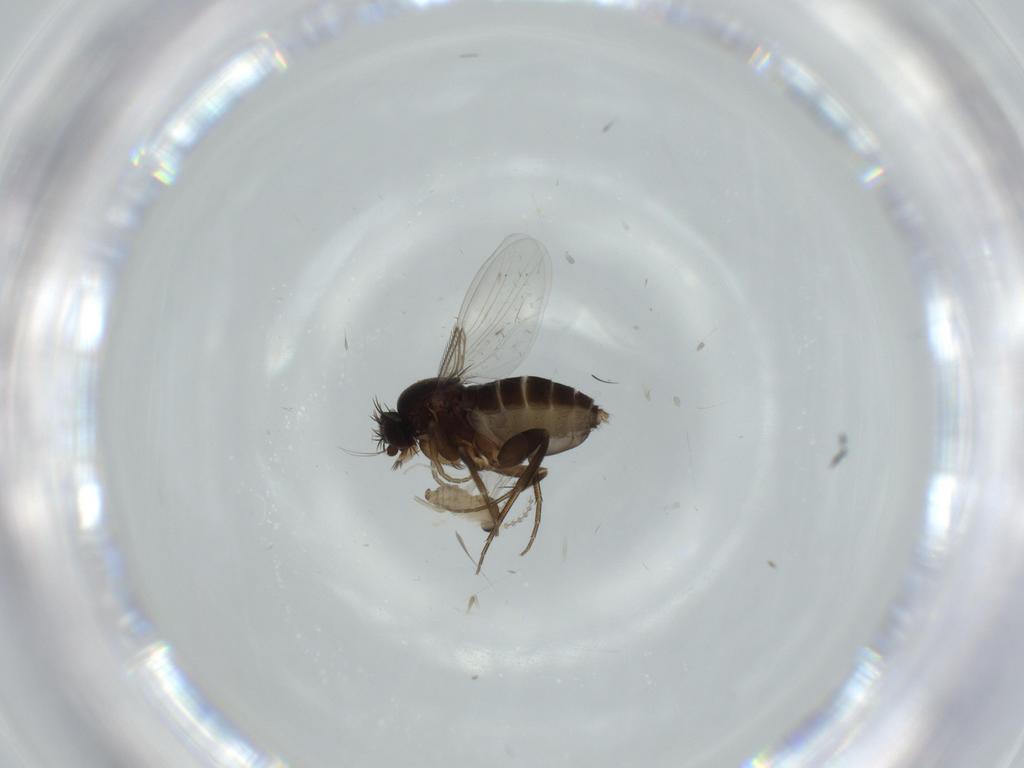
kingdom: Animalia
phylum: Arthropoda
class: Insecta
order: Diptera
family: Phoridae
